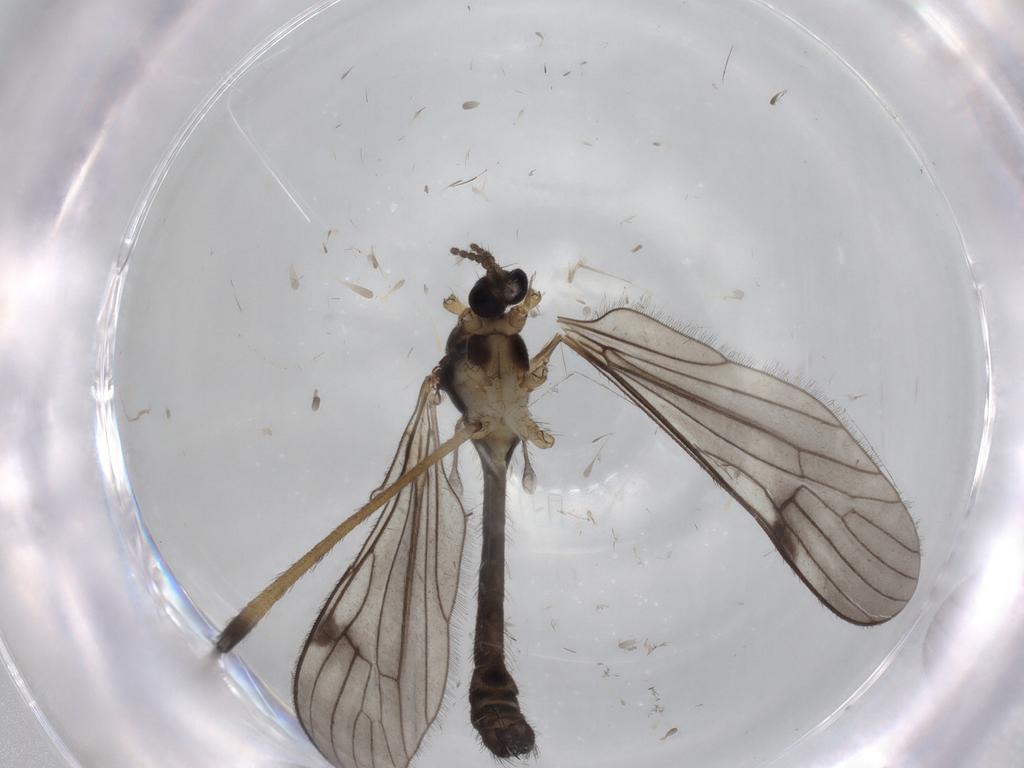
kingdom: Animalia
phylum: Arthropoda
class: Insecta
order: Diptera
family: Limoniidae
